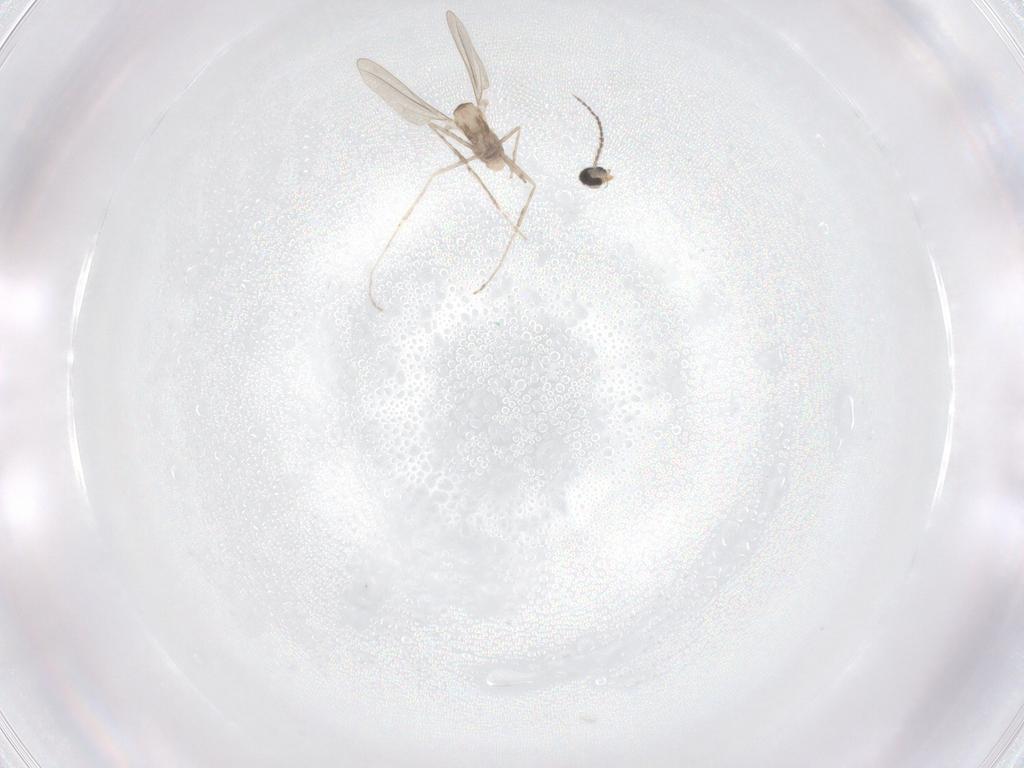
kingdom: Animalia
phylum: Arthropoda
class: Insecta
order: Diptera
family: Cecidomyiidae
